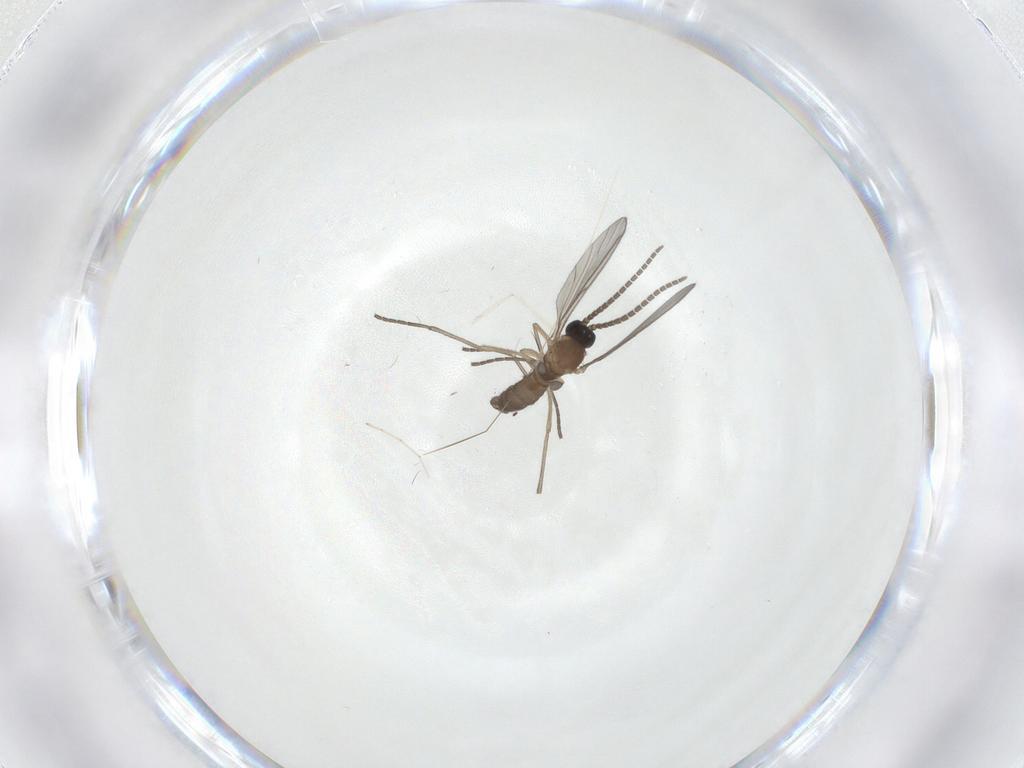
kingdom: Animalia
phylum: Arthropoda
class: Insecta
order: Diptera
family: Sciaridae
